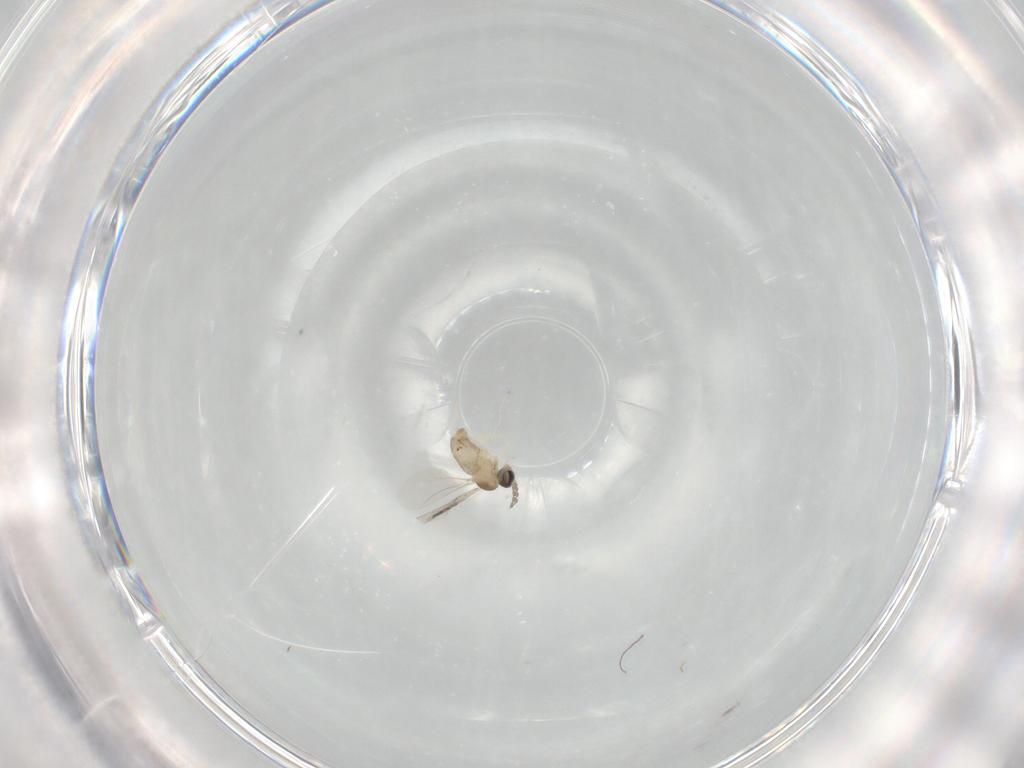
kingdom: Animalia
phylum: Arthropoda
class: Insecta
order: Diptera
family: Cecidomyiidae
